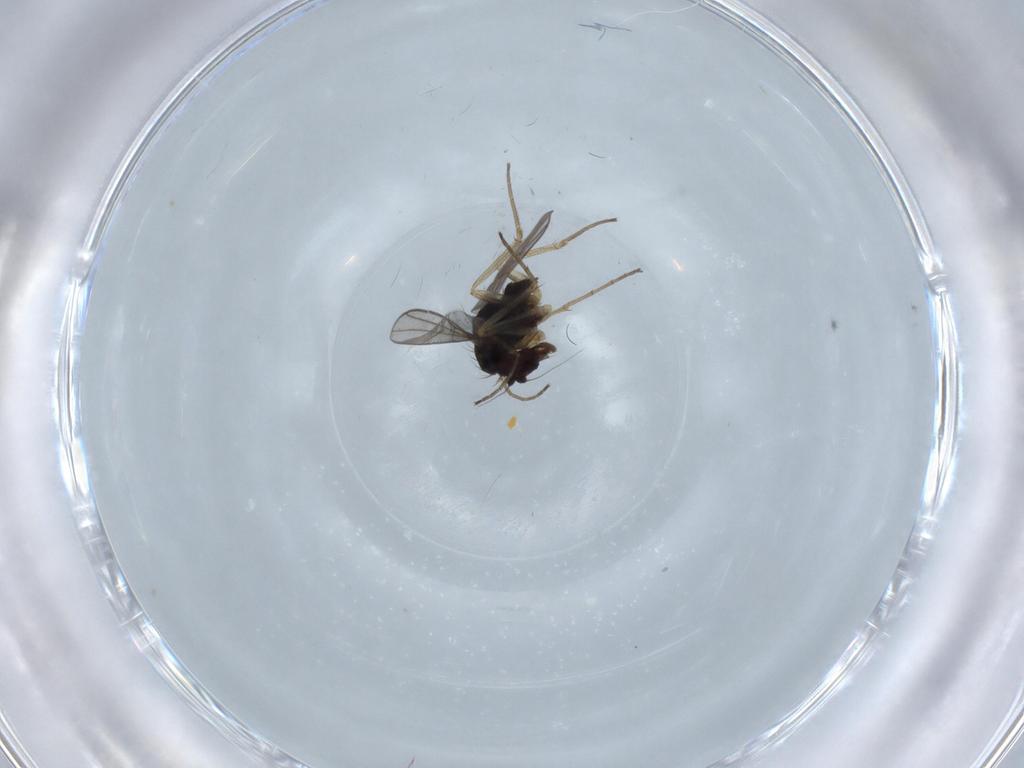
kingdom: Animalia
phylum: Arthropoda
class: Insecta
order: Diptera
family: Dolichopodidae
